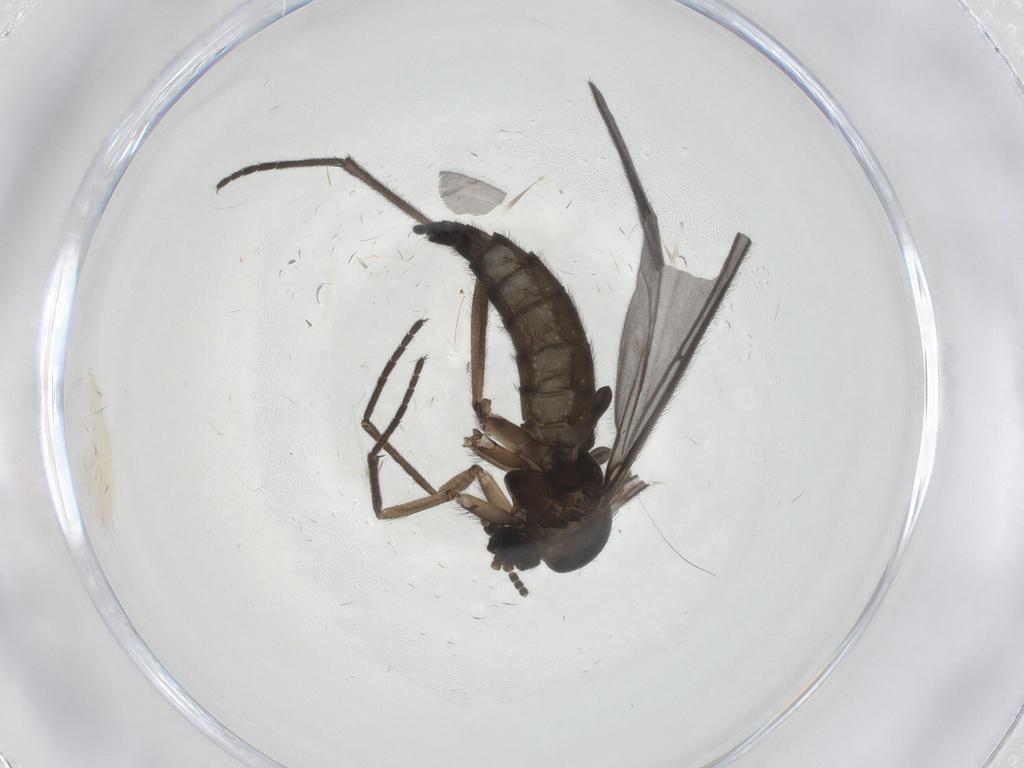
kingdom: Animalia
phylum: Arthropoda
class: Insecta
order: Diptera
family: Sciaridae
